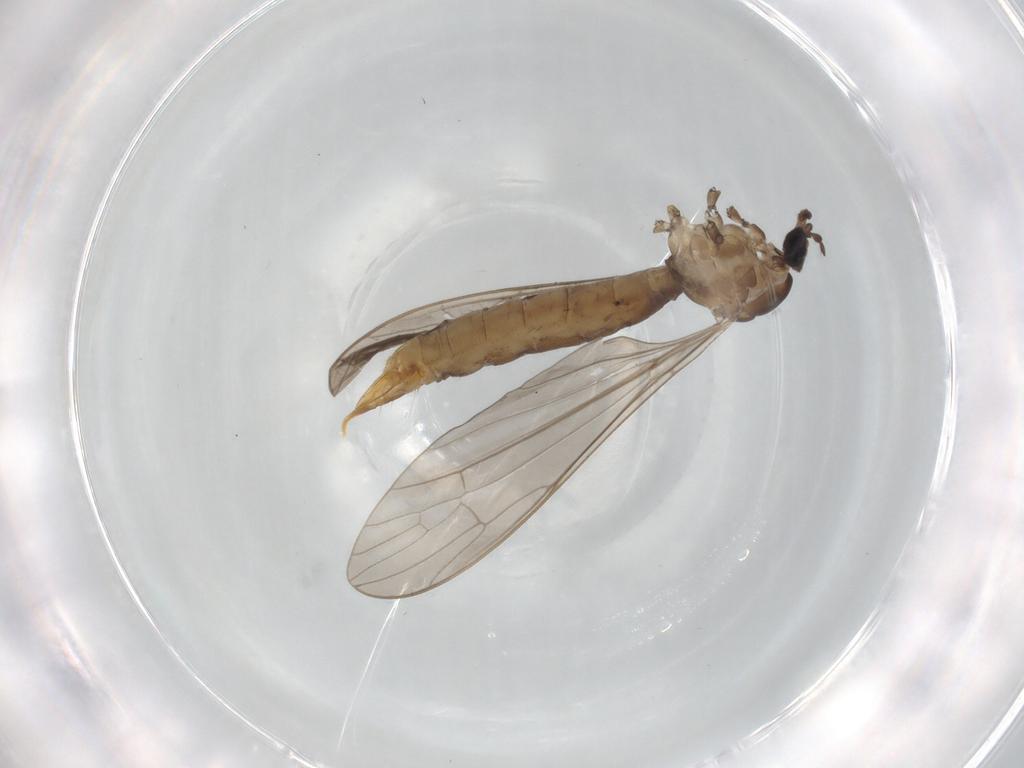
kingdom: Animalia
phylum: Arthropoda
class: Insecta
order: Diptera
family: Limoniidae
